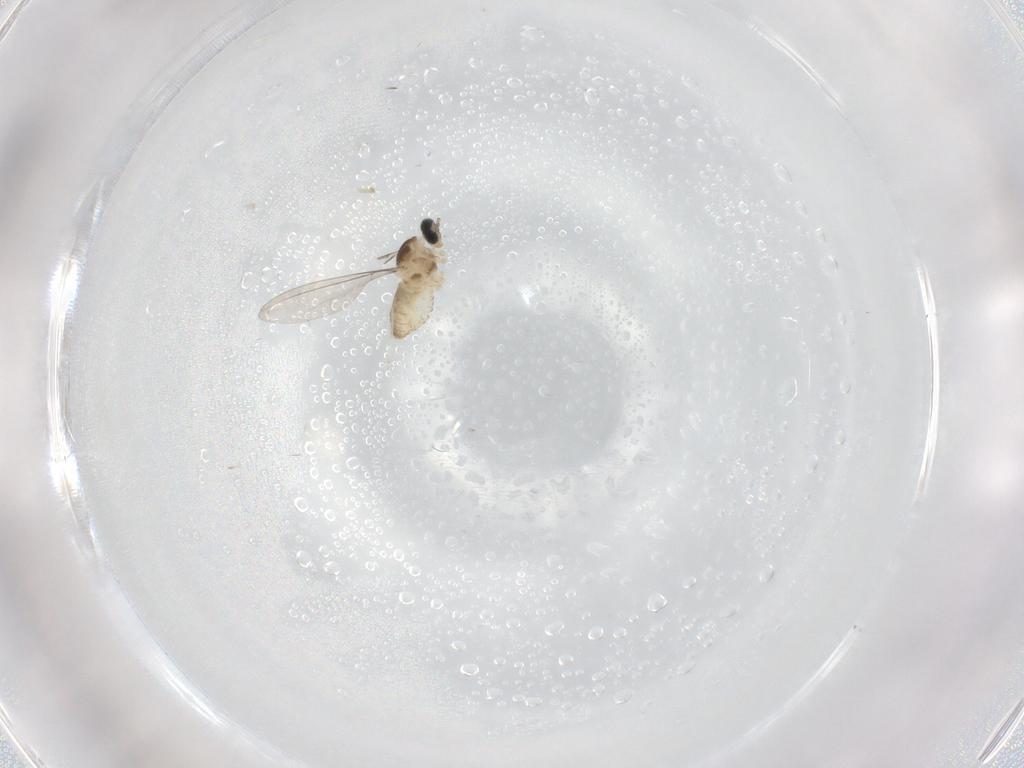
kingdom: Animalia
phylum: Arthropoda
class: Insecta
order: Diptera
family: Cecidomyiidae
